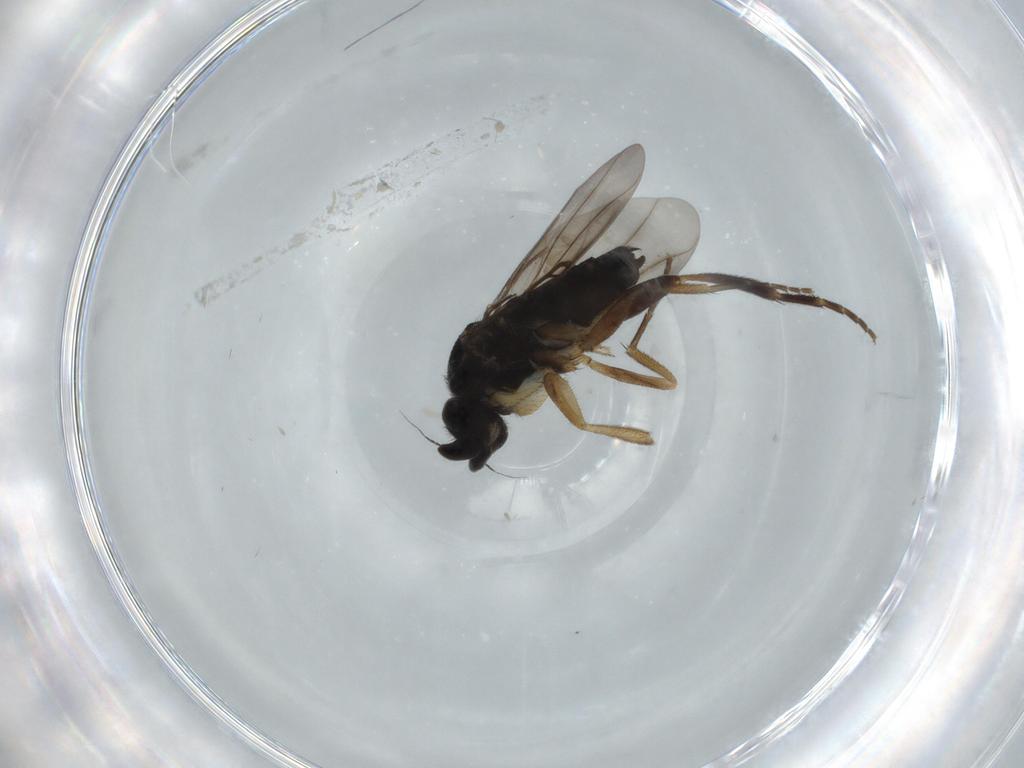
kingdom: Animalia
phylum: Arthropoda
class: Insecta
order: Diptera
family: Phoridae
